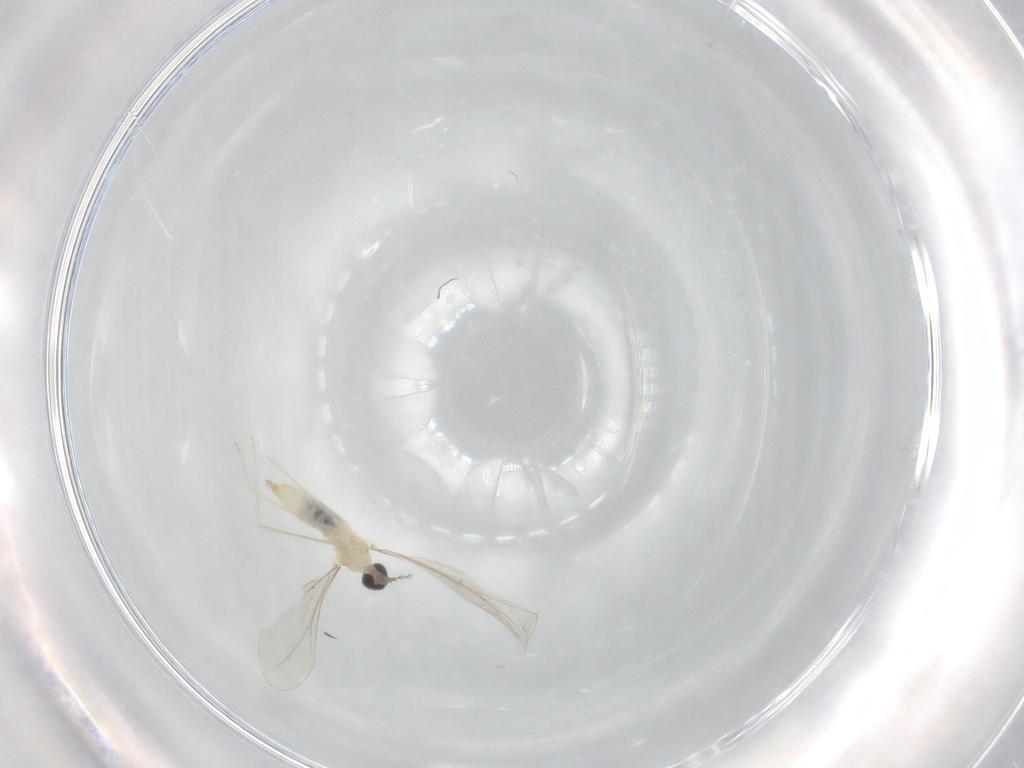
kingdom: Animalia
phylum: Arthropoda
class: Insecta
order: Diptera
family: Cecidomyiidae
